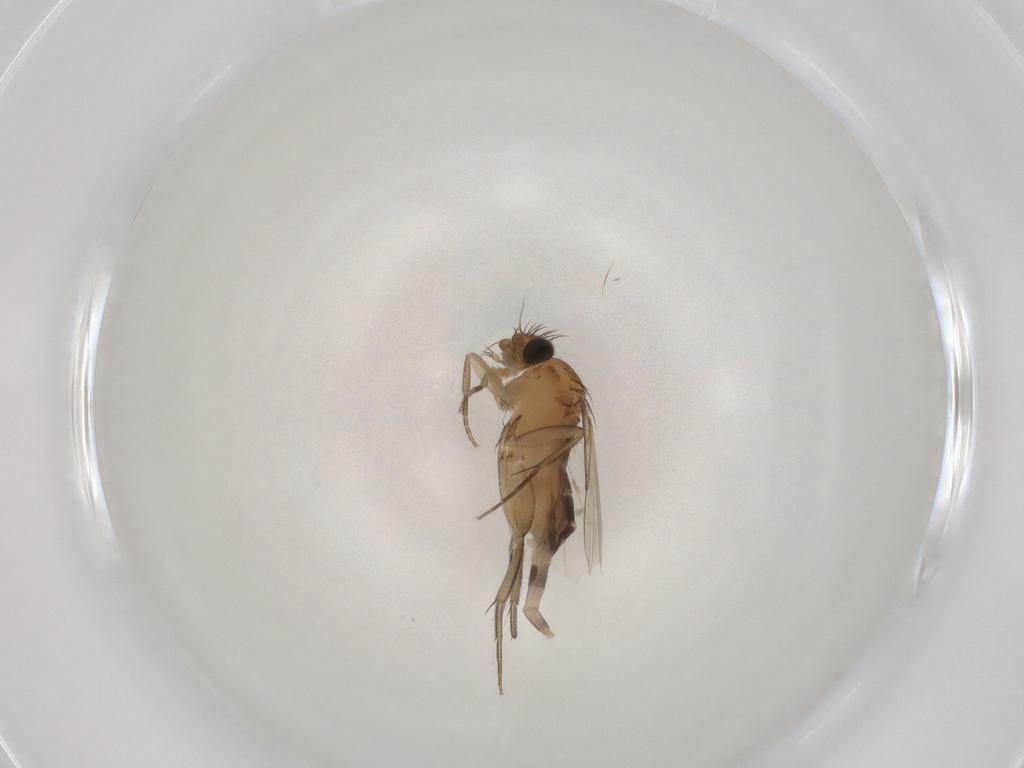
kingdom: Animalia
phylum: Arthropoda
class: Insecta
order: Diptera
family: Phoridae
